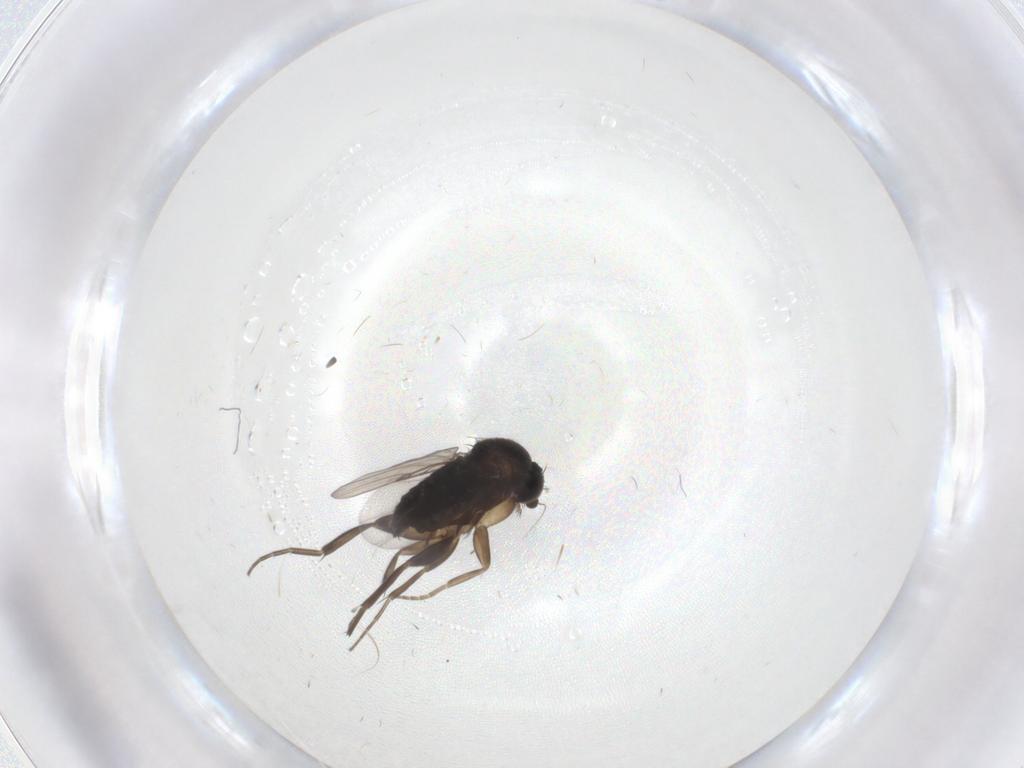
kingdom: Animalia
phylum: Arthropoda
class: Insecta
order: Diptera
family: Phoridae
